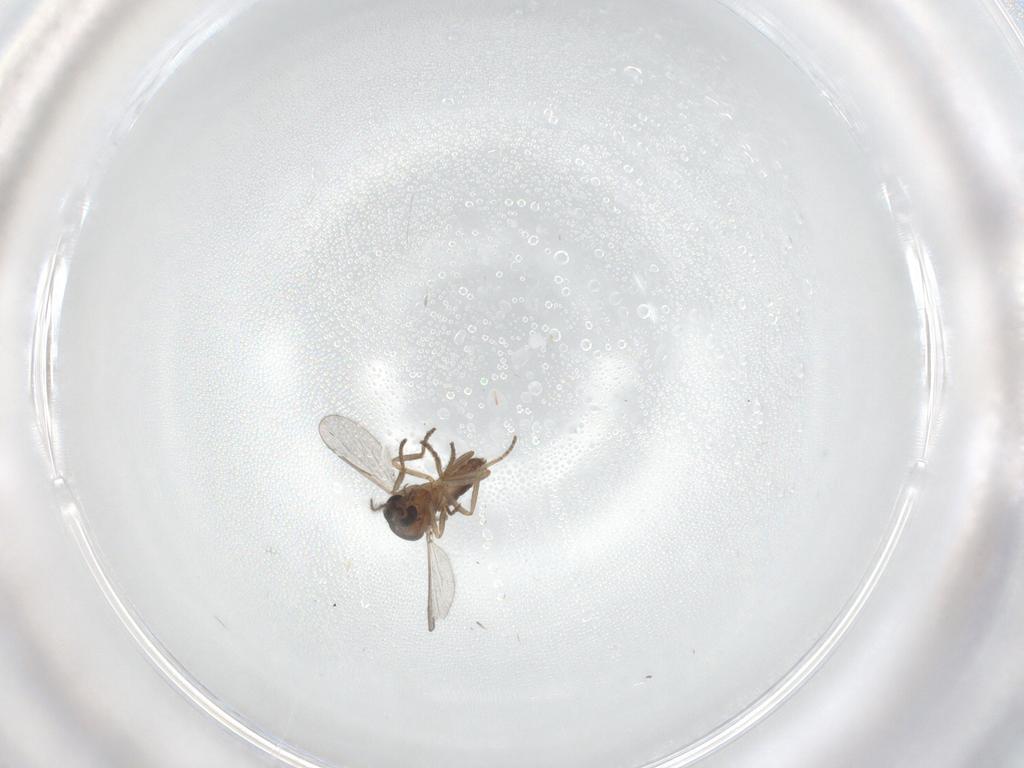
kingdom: Animalia
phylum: Arthropoda
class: Insecta
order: Diptera
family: Ceratopogonidae
